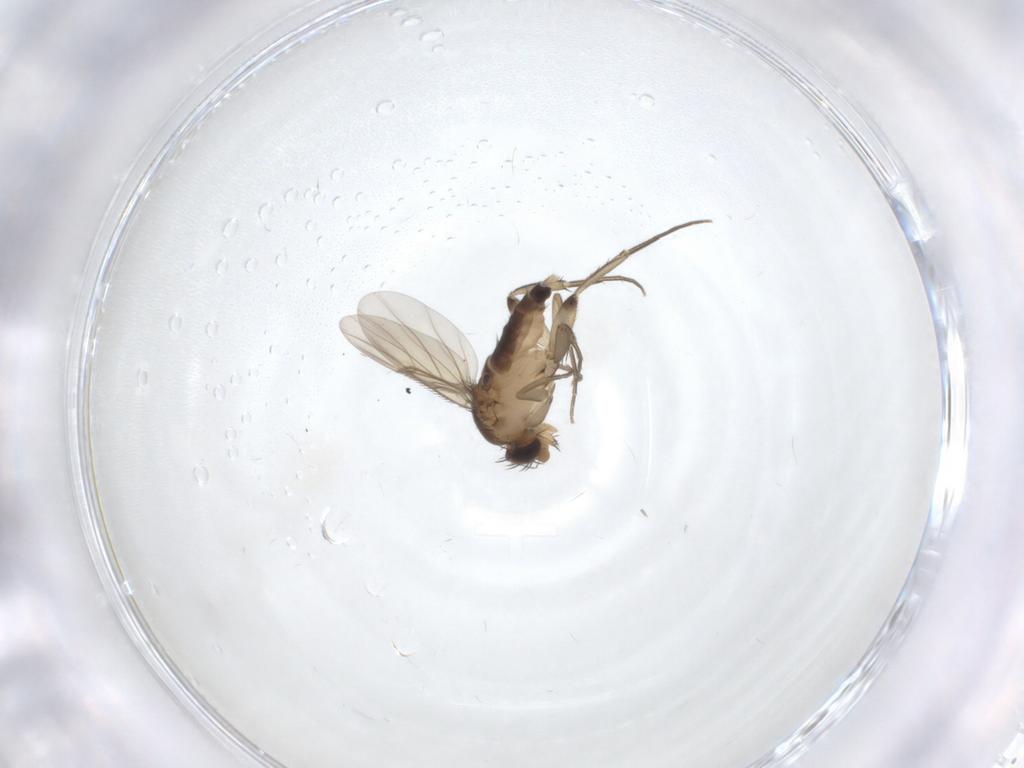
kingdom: Animalia
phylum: Arthropoda
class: Insecta
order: Diptera
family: Phoridae
